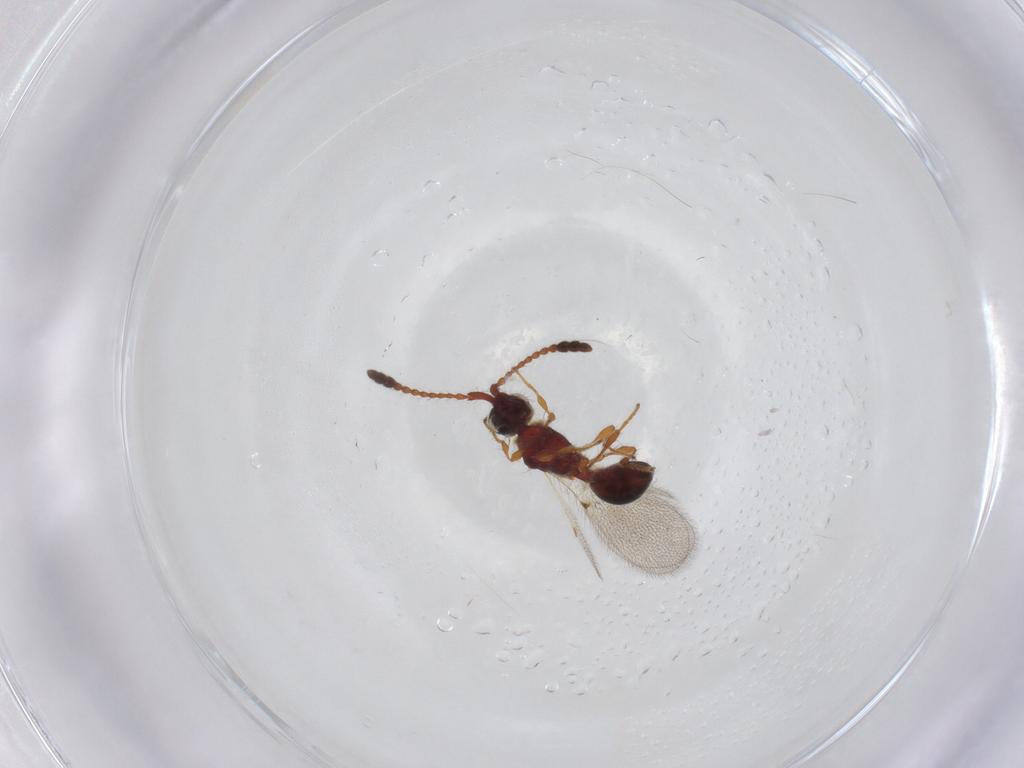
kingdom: Animalia
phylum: Arthropoda
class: Insecta
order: Hymenoptera
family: Diapriidae
